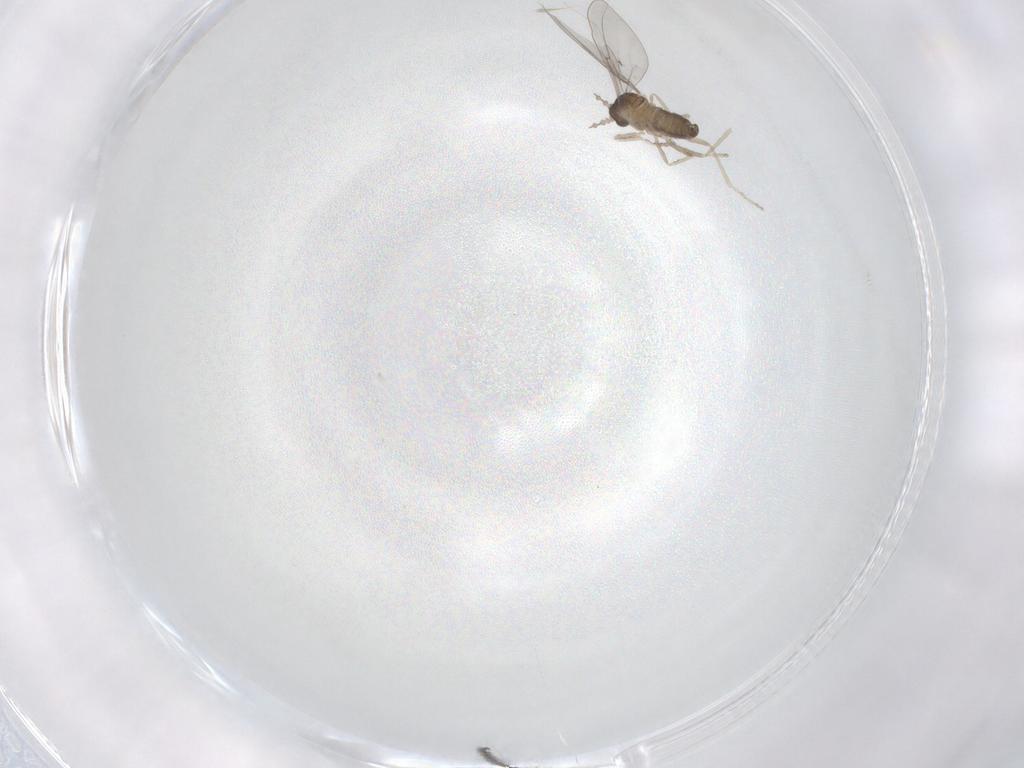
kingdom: Animalia
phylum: Arthropoda
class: Insecta
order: Diptera
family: Cecidomyiidae
